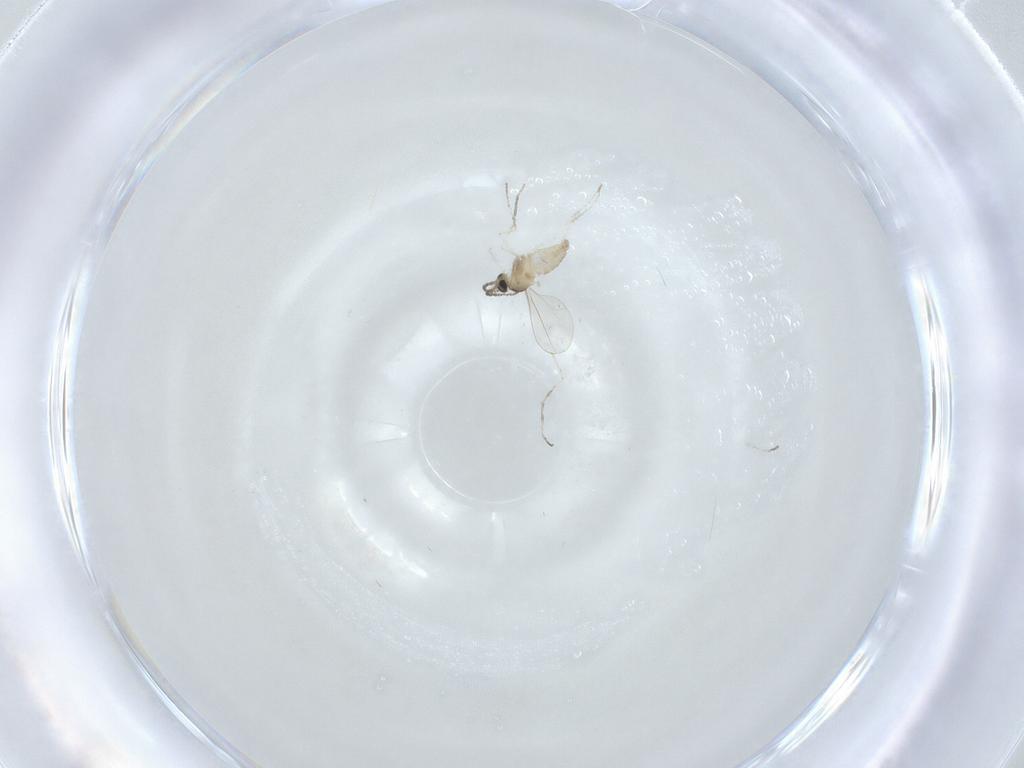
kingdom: Animalia
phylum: Arthropoda
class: Insecta
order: Diptera
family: Cecidomyiidae
